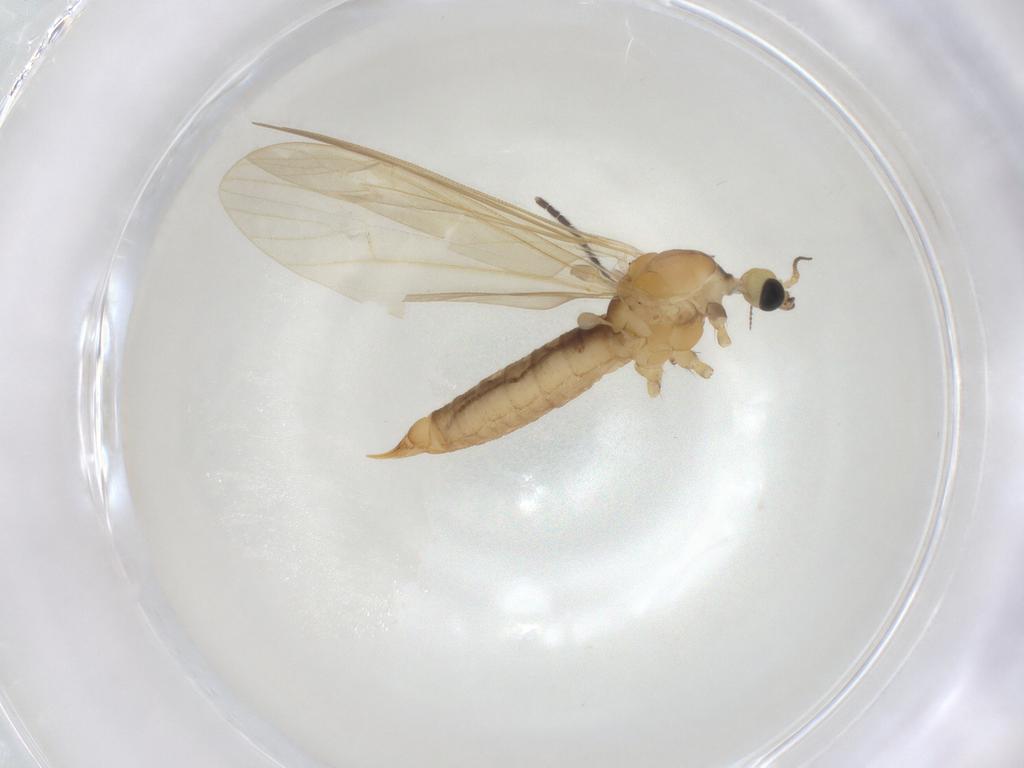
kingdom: Animalia
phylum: Arthropoda
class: Insecta
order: Diptera
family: Limoniidae
